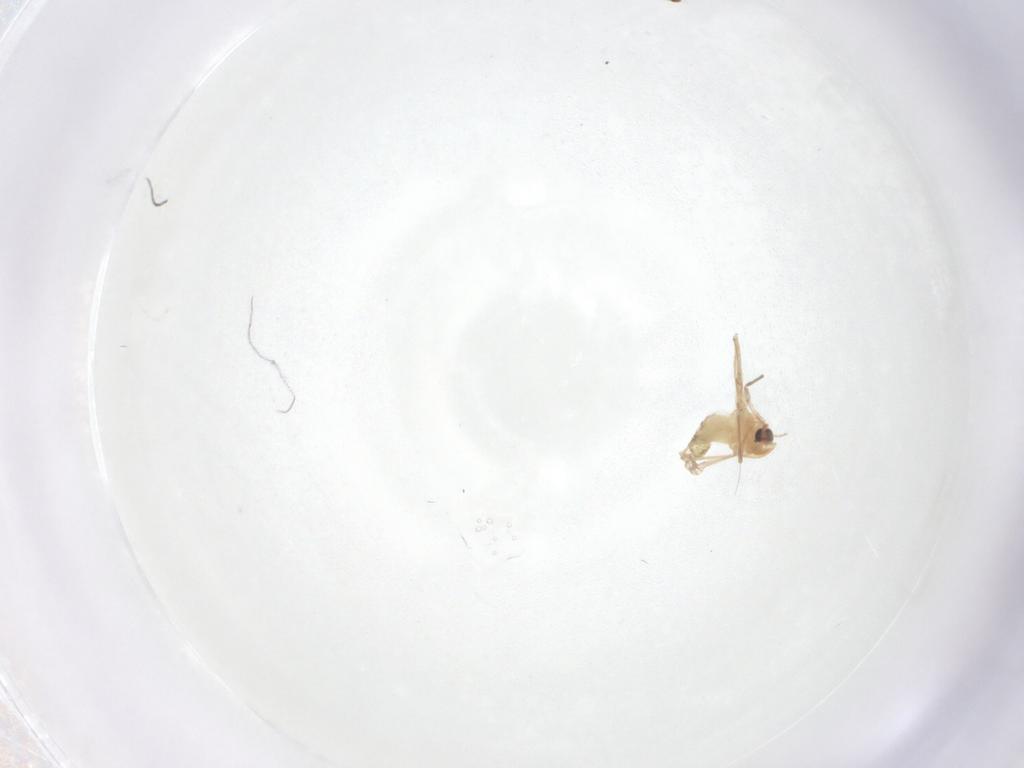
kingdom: Animalia
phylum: Arthropoda
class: Insecta
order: Diptera
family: Chironomidae
